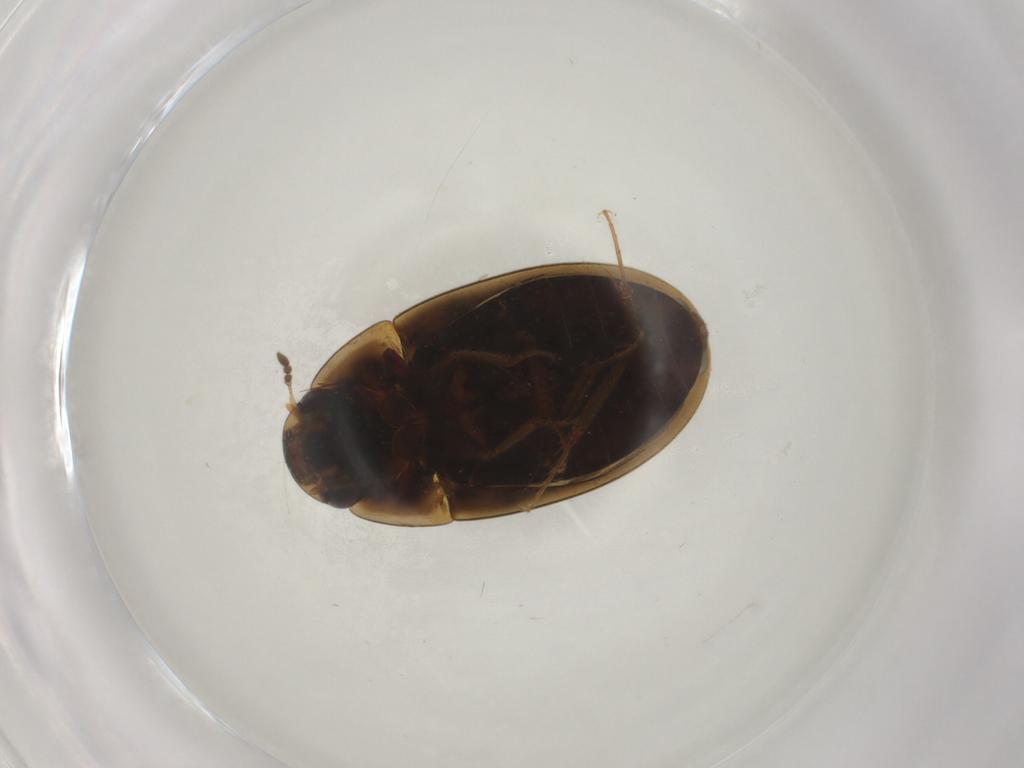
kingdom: Animalia
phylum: Arthropoda
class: Insecta
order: Coleoptera
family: Hydrophilidae
